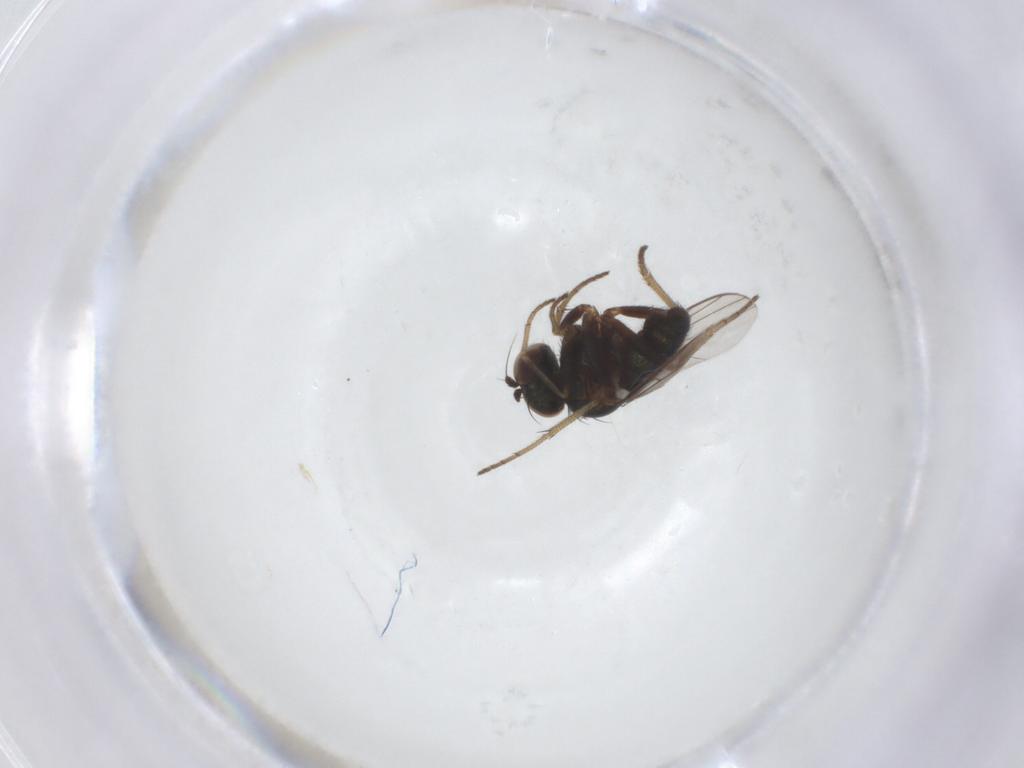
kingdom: Animalia
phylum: Arthropoda
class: Insecta
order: Diptera
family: Dolichopodidae
